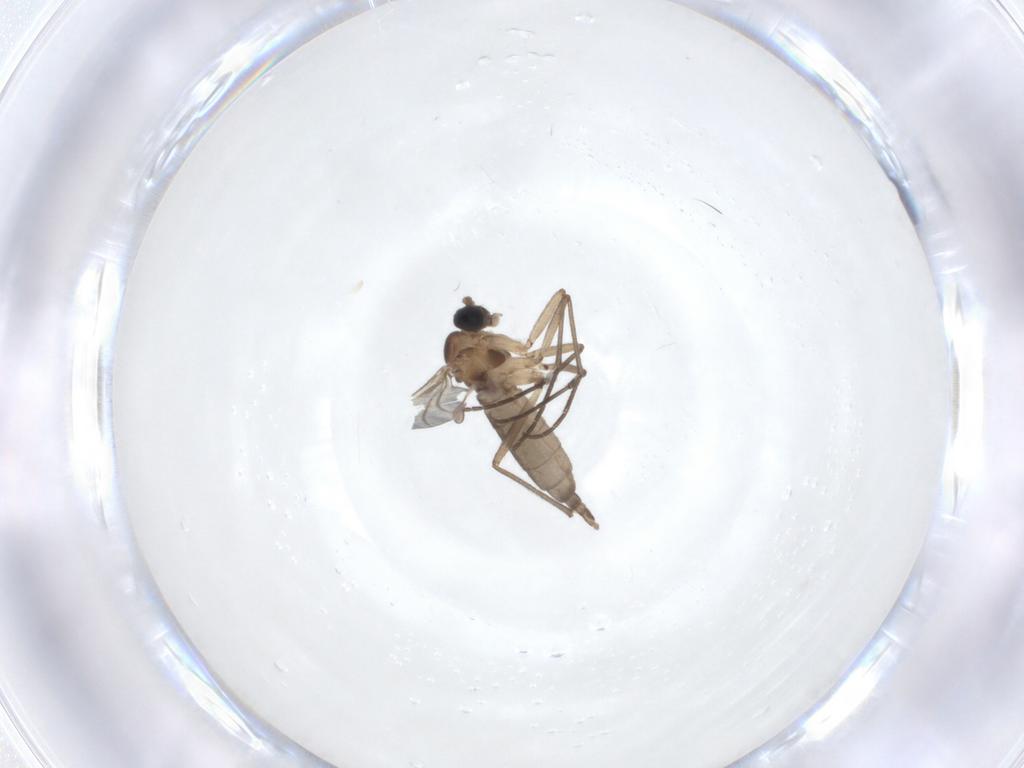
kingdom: Animalia
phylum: Arthropoda
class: Insecta
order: Diptera
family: Sciaridae
